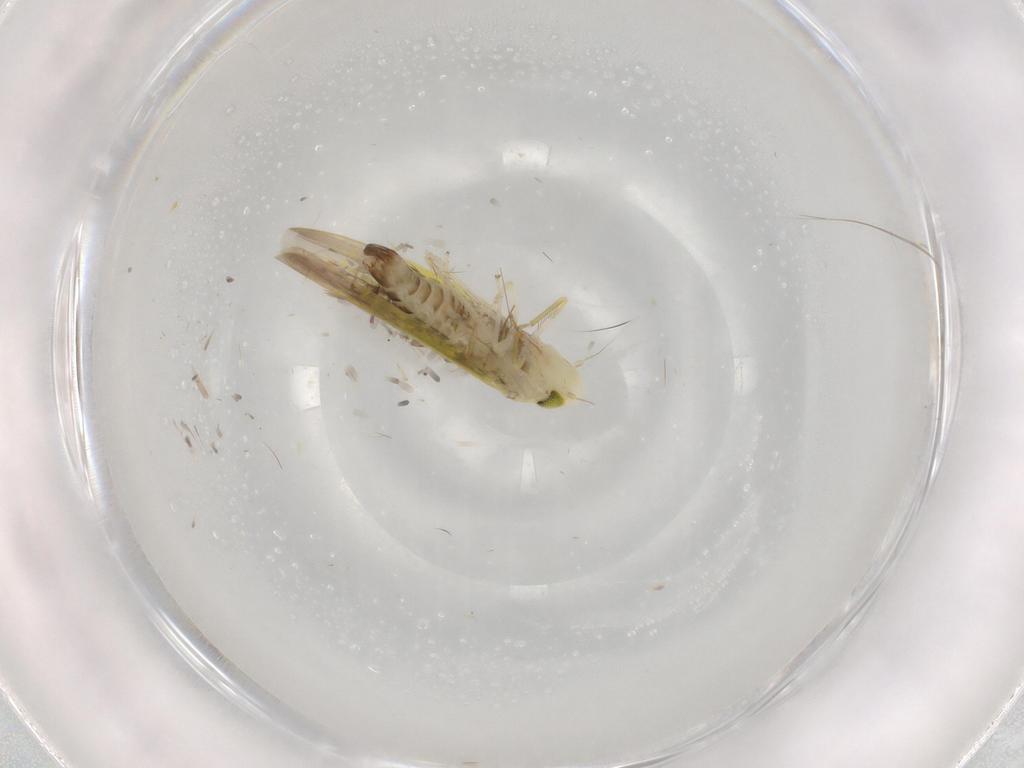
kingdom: Animalia
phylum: Arthropoda
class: Insecta
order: Hemiptera
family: Cicadellidae
